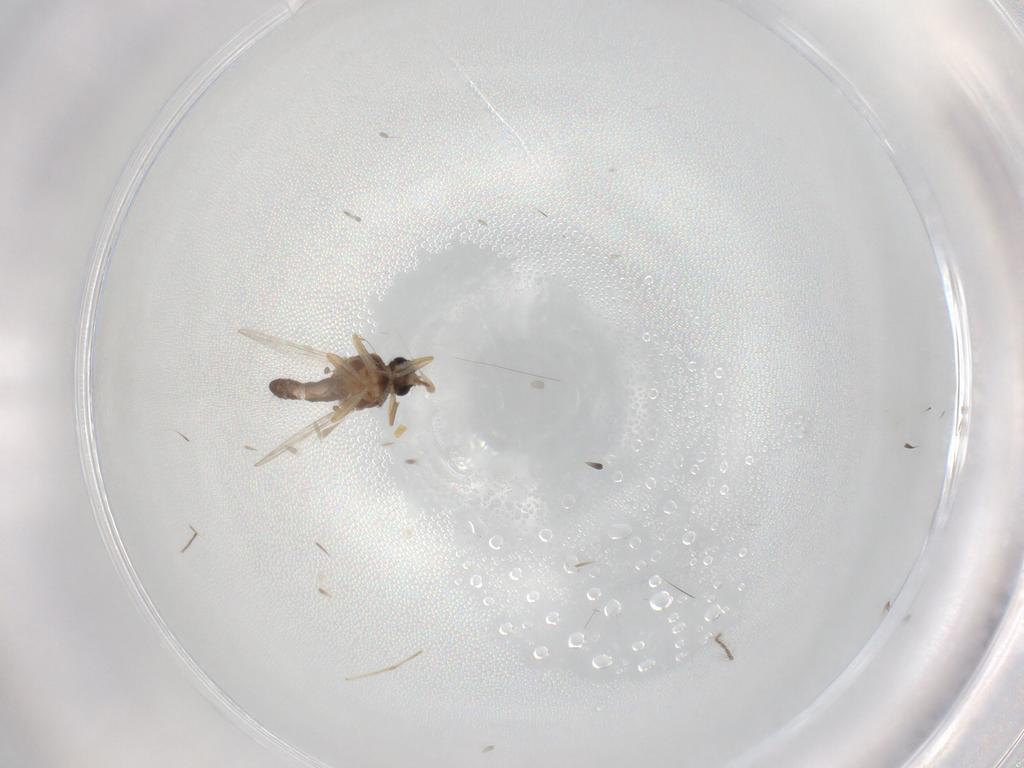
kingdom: Animalia
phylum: Arthropoda
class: Insecta
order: Diptera
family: Ceratopogonidae
